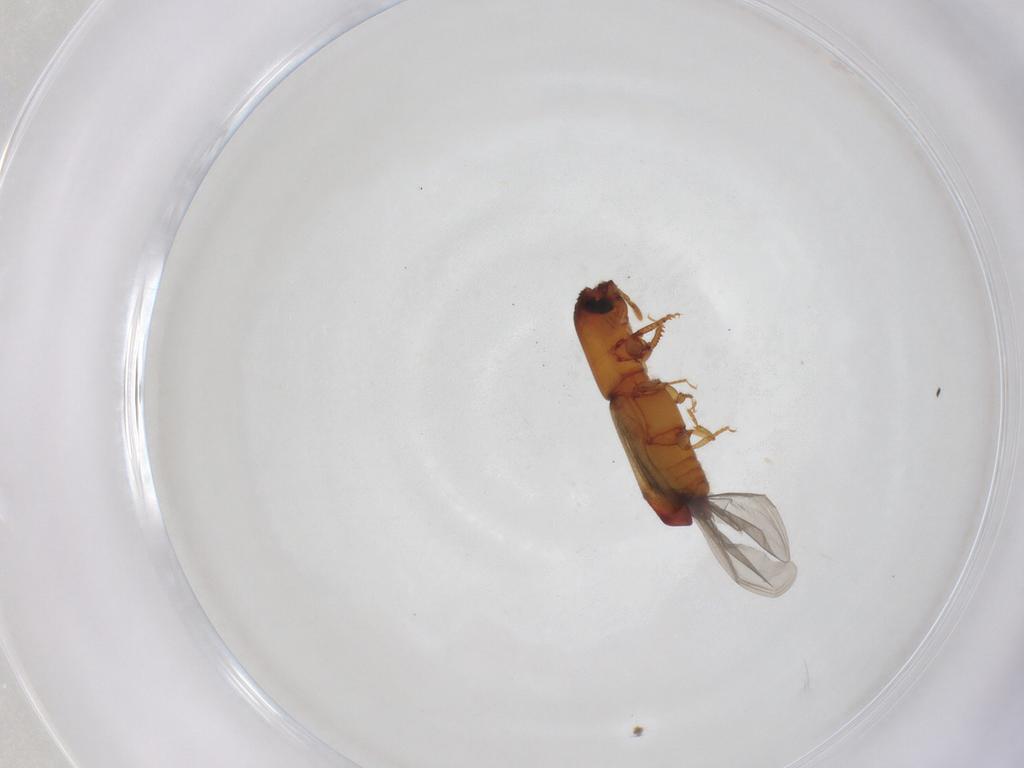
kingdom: Animalia
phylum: Arthropoda
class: Insecta
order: Coleoptera
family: Curculionidae
